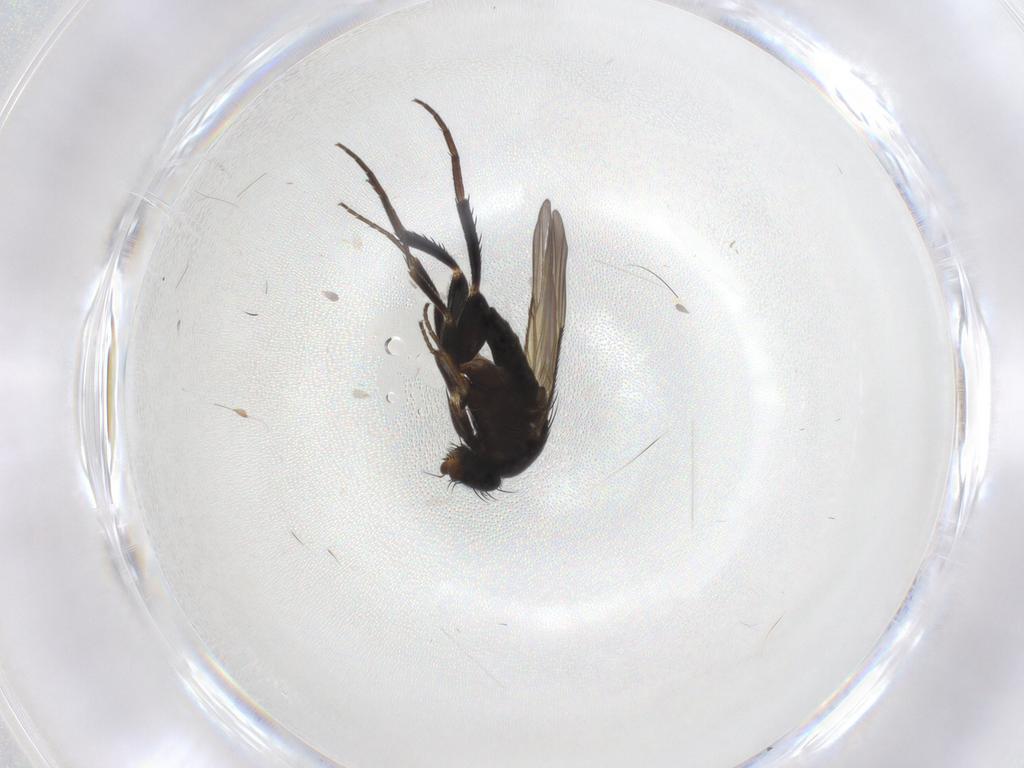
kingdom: Animalia
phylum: Arthropoda
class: Insecta
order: Diptera
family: Phoridae
